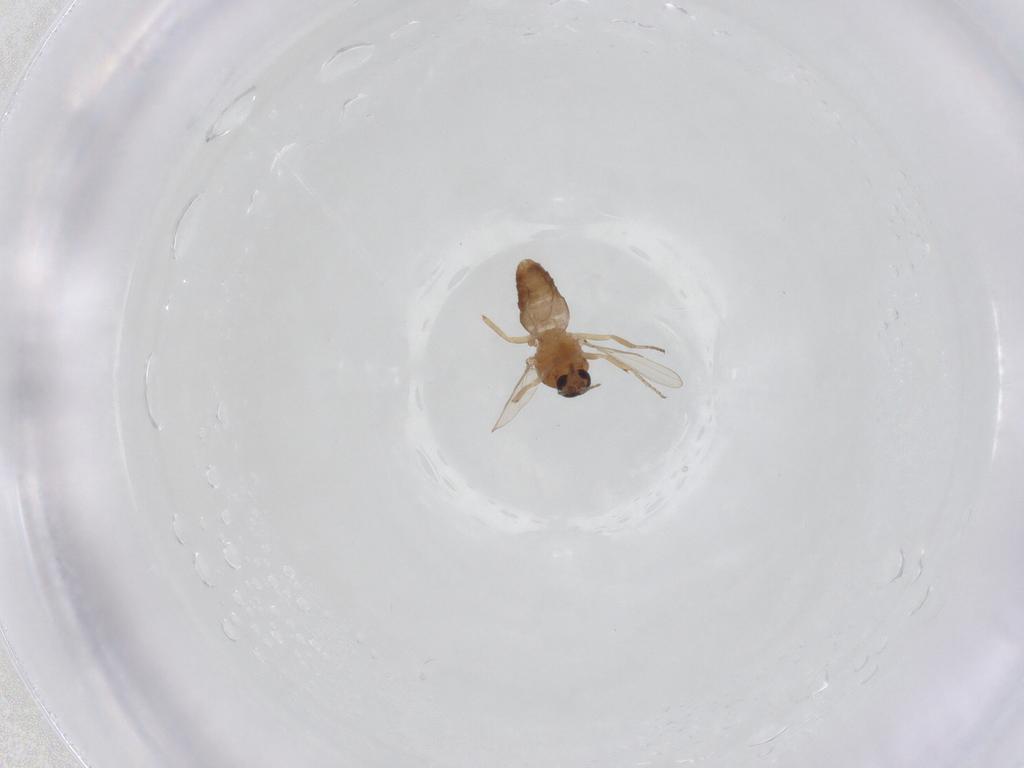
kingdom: Animalia
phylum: Arthropoda
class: Insecta
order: Diptera
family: Ceratopogonidae
